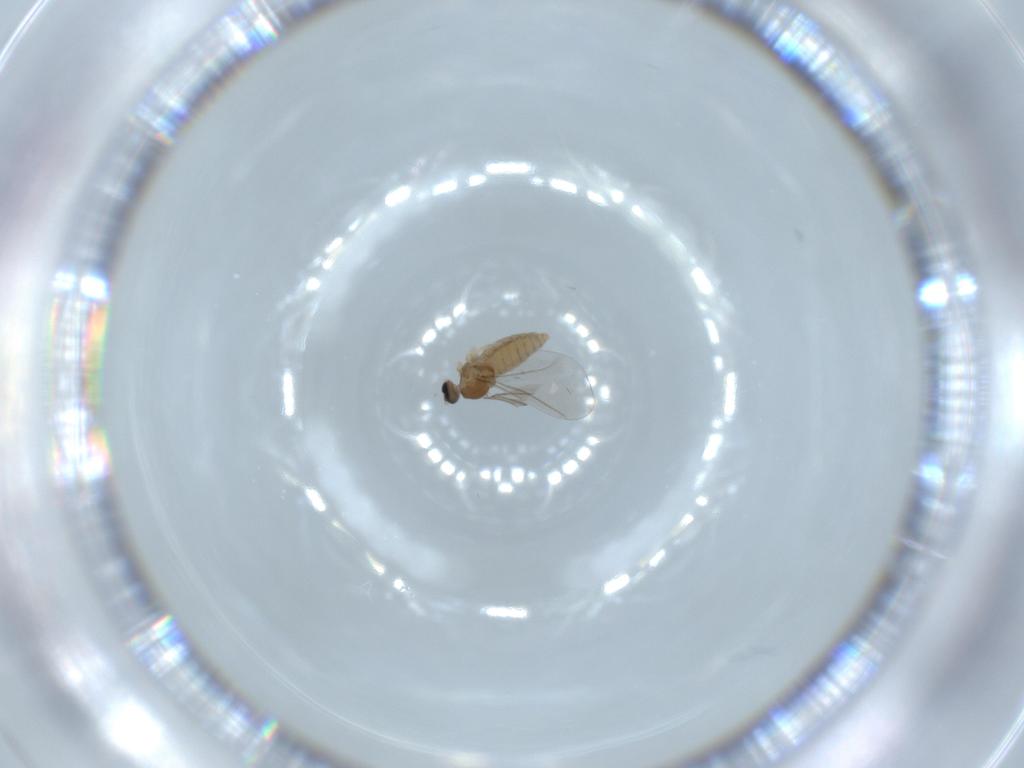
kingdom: Animalia
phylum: Arthropoda
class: Insecta
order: Diptera
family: Cecidomyiidae
